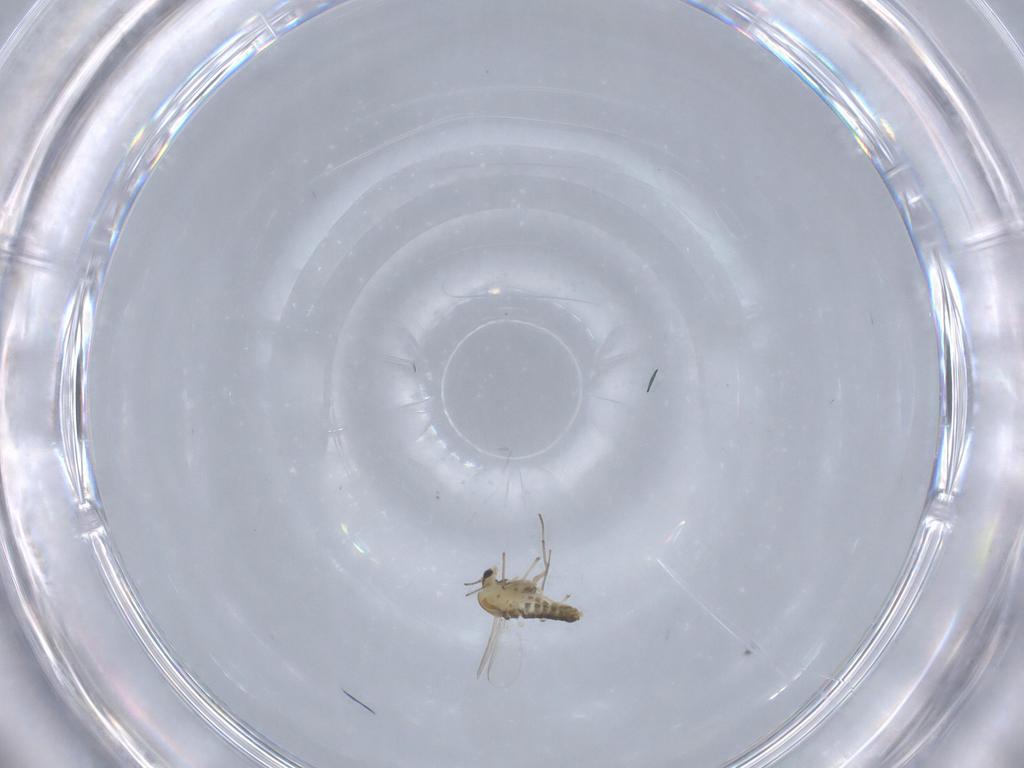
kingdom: Animalia
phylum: Arthropoda
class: Insecta
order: Diptera
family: Chironomidae
